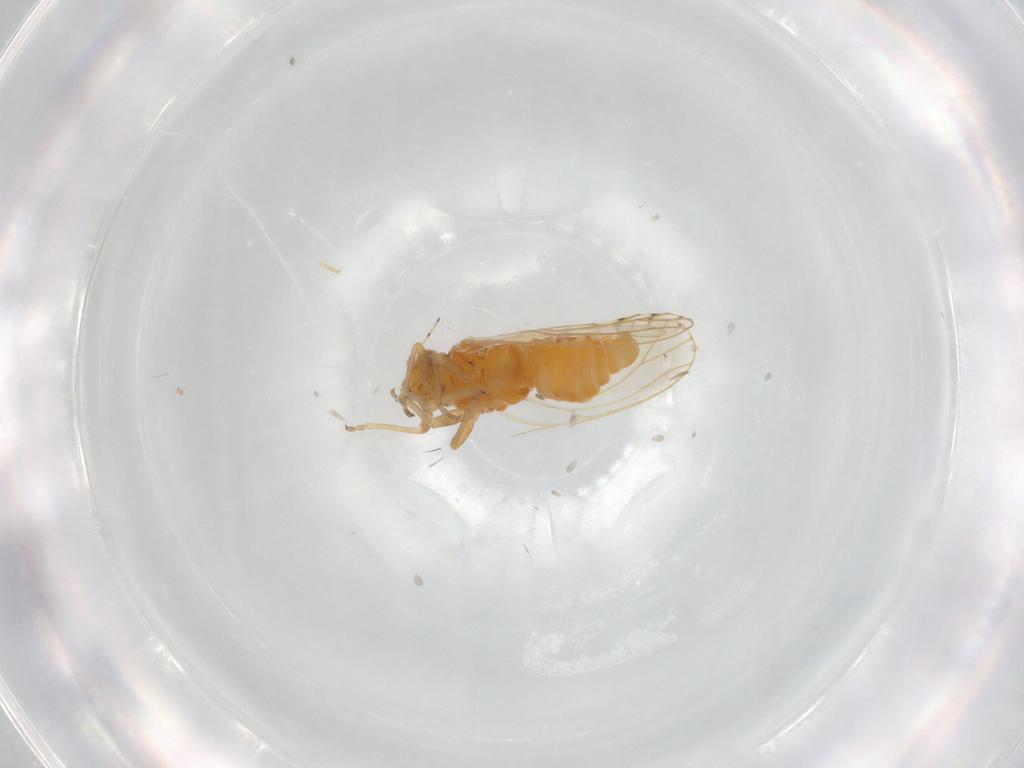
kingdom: Animalia
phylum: Arthropoda
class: Insecta
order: Hemiptera
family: Psylloidea_incertae_sedis
